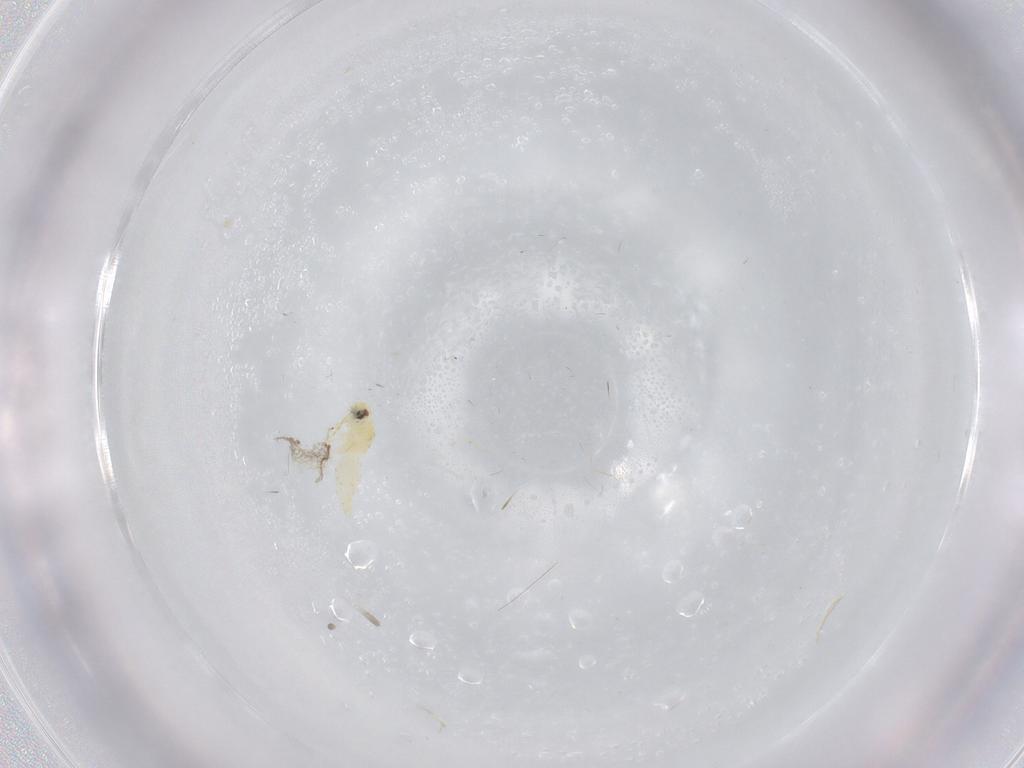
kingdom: Animalia
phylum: Arthropoda
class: Insecta
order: Hemiptera
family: Aleyrodidae
